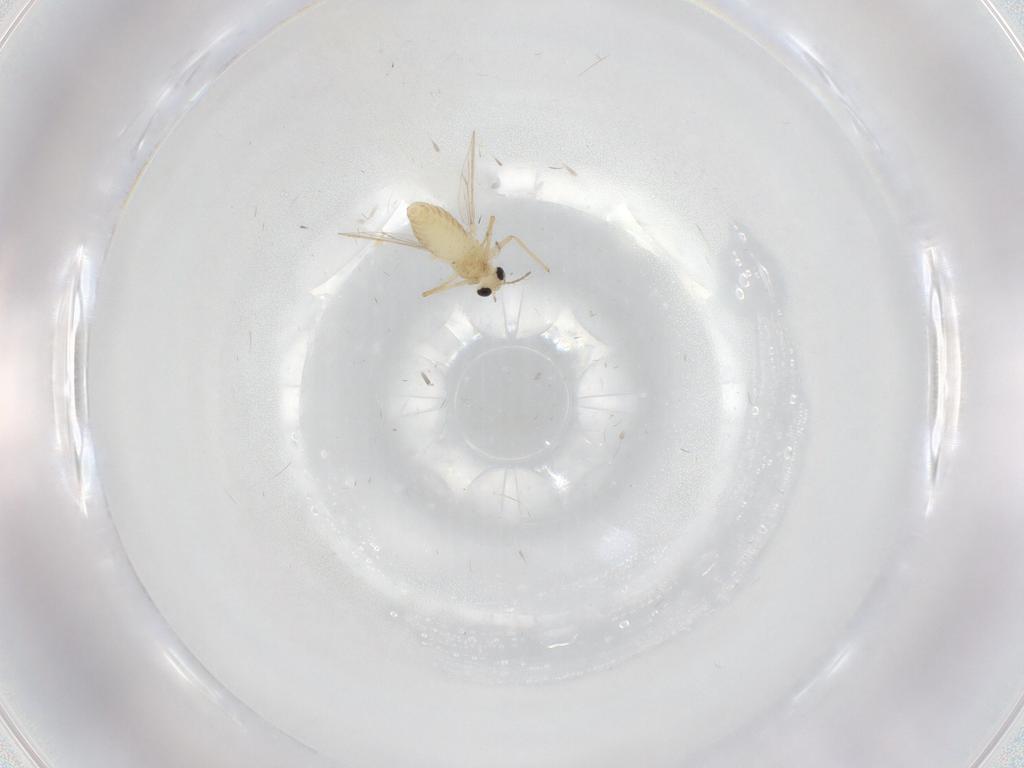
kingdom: Animalia
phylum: Arthropoda
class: Insecta
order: Diptera
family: Chironomidae
